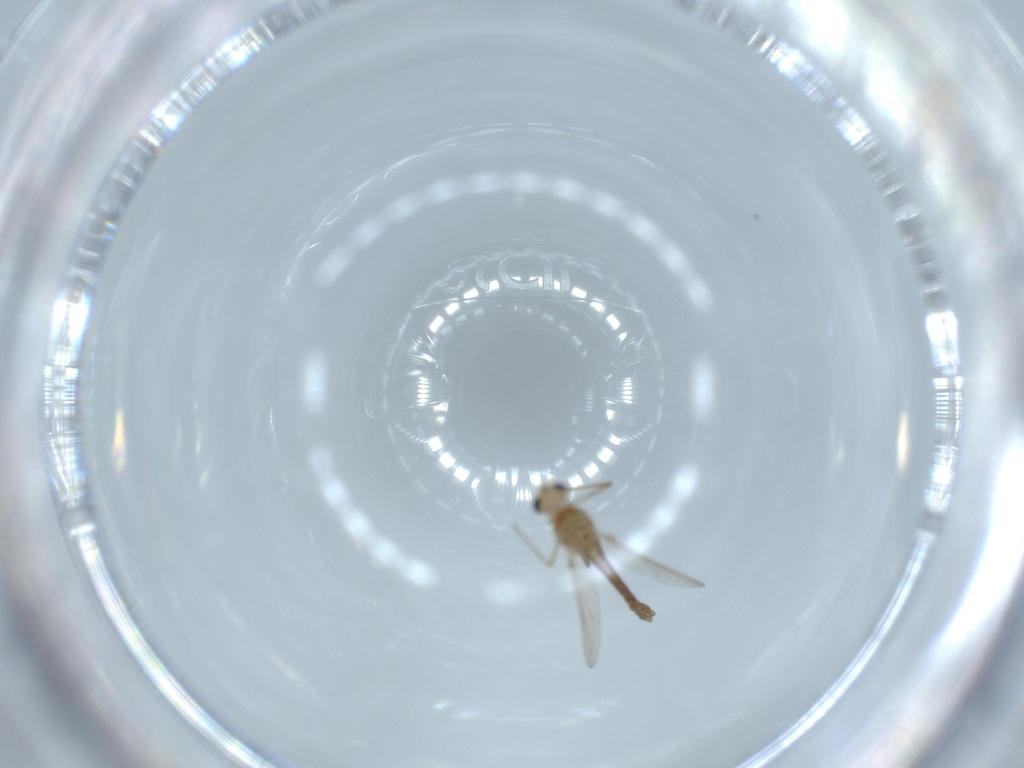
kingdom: Animalia
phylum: Arthropoda
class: Insecta
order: Diptera
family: Chironomidae
